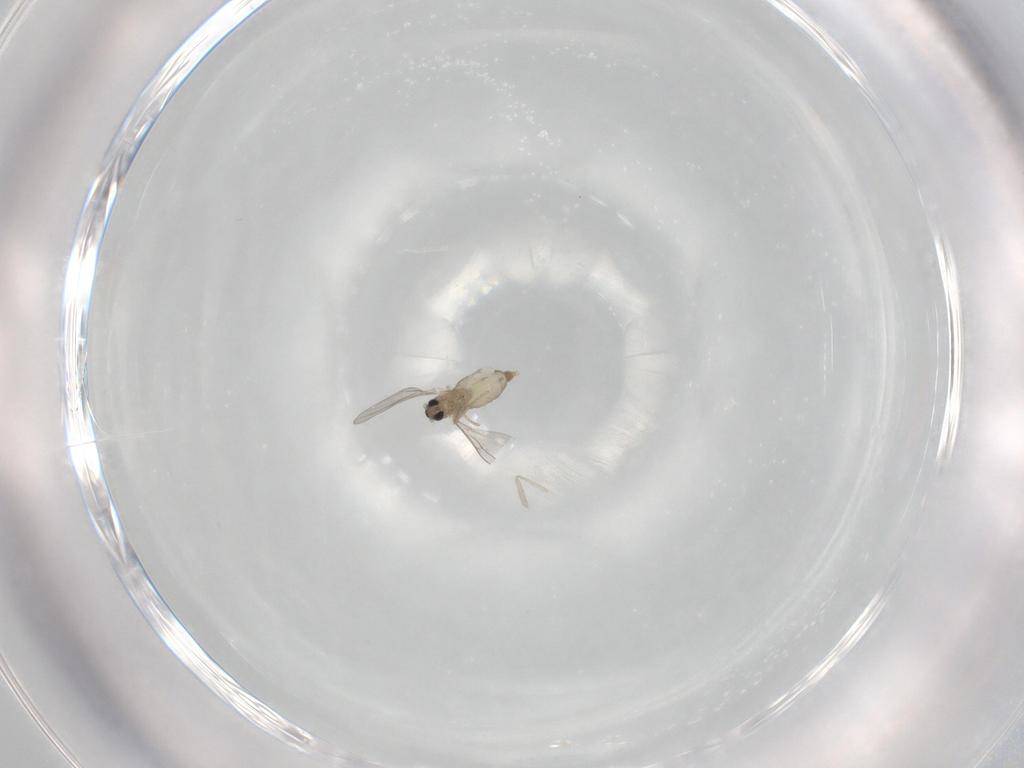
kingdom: Animalia
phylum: Arthropoda
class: Insecta
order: Diptera
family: Cecidomyiidae
